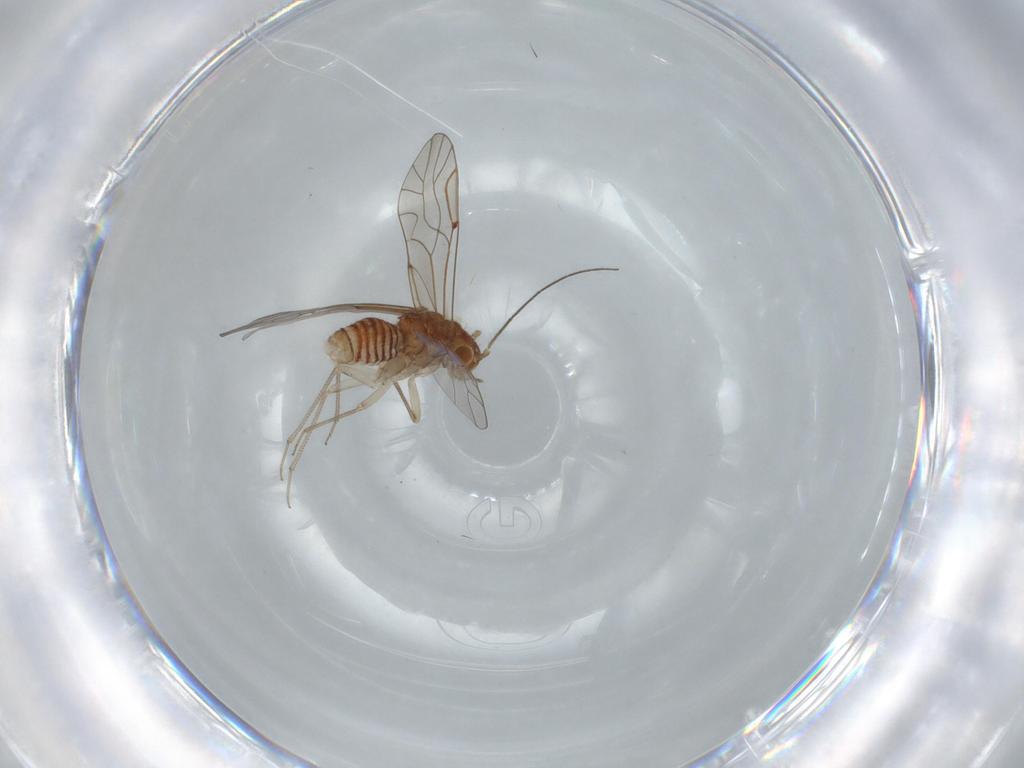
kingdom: Animalia
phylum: Arthropoda
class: Insecta
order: Psocodea
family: Lachesillidae
